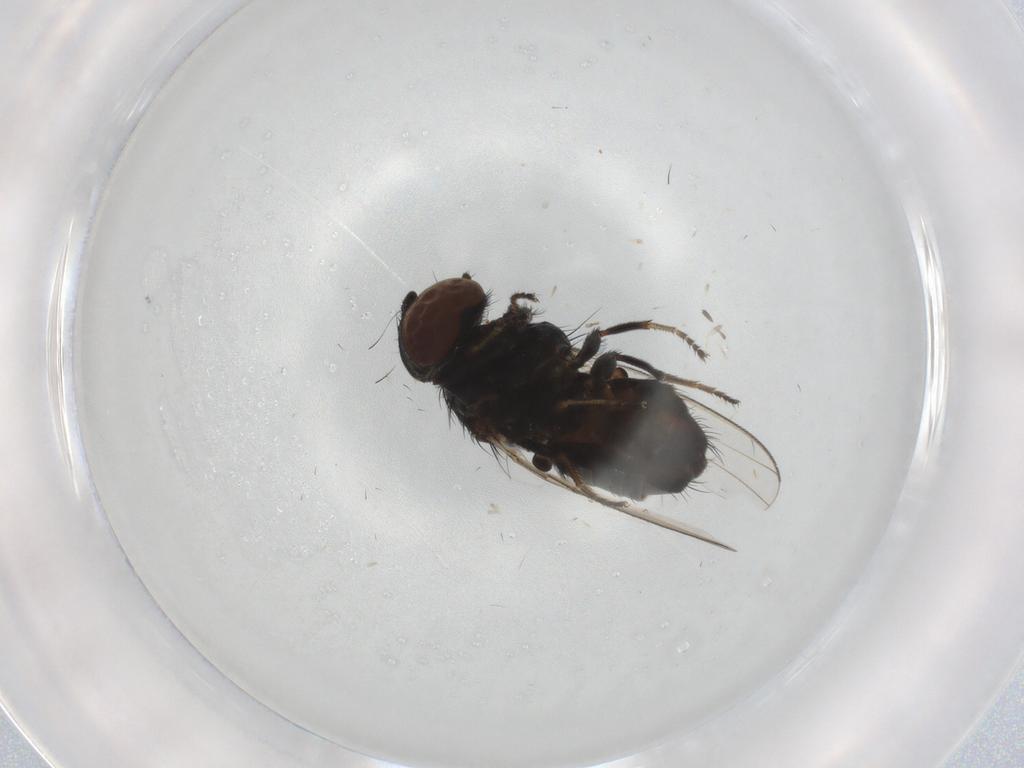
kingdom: Animalia
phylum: Arthropoda
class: Insecta
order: Diptera
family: Milichiidae
